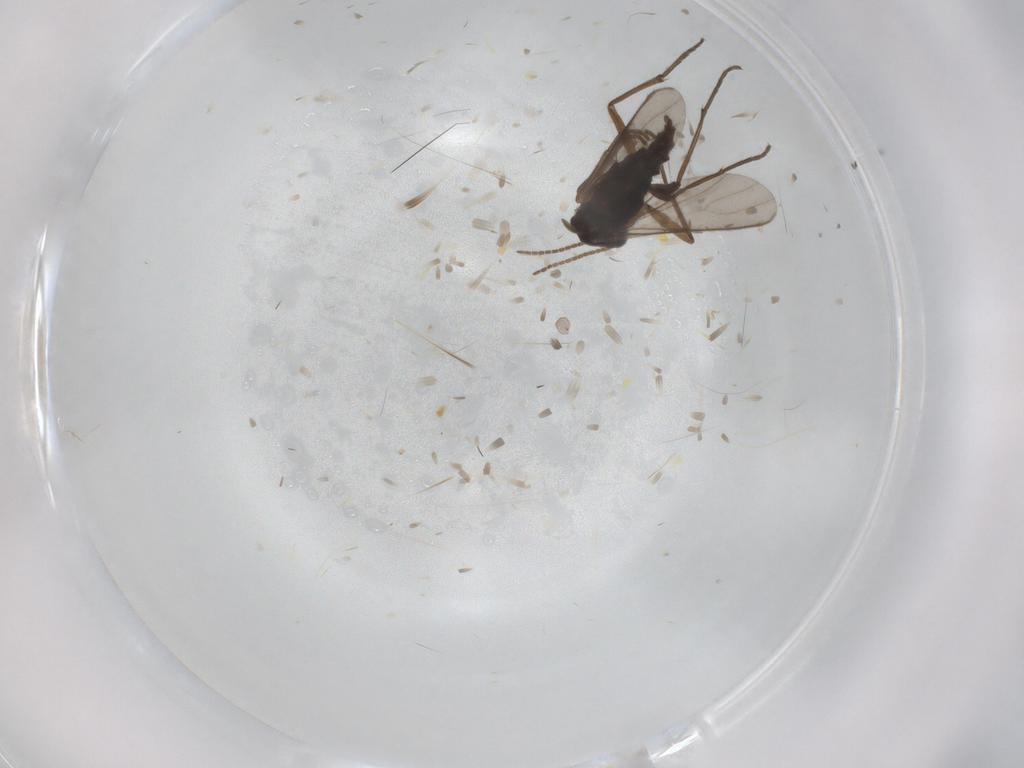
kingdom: Animalia
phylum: Arthropoda
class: Insecta
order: Diptera
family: Sciaridae
